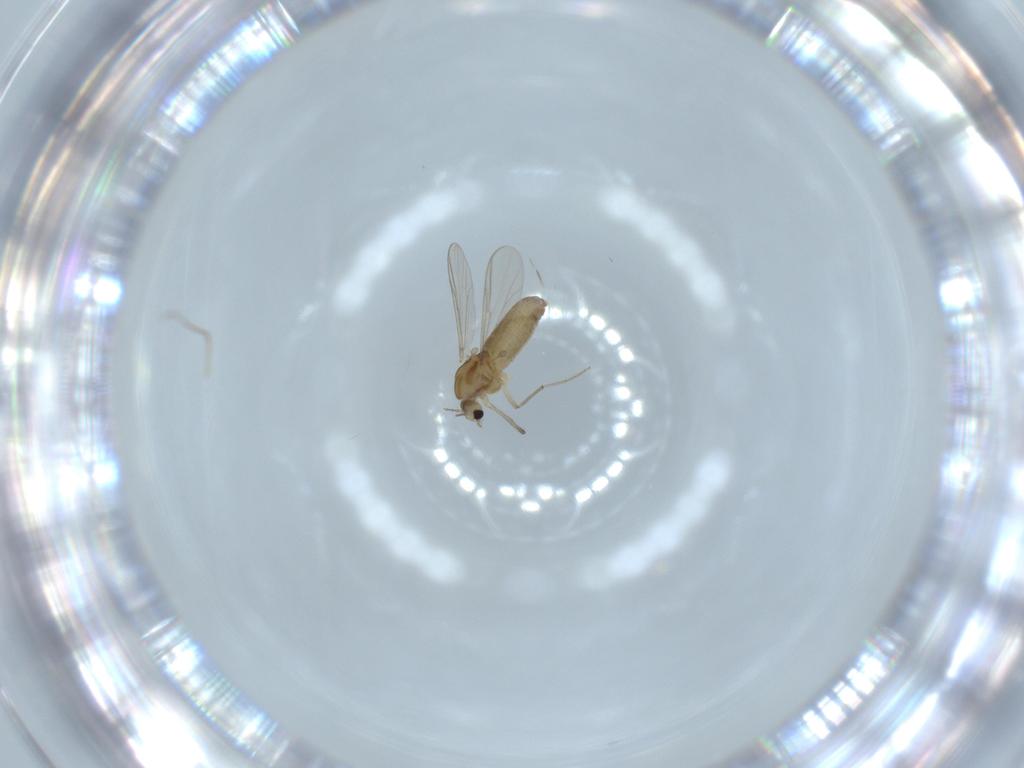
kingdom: Animalia
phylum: Arthropoda
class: Insecta
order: Diptera
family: Chironomidae
